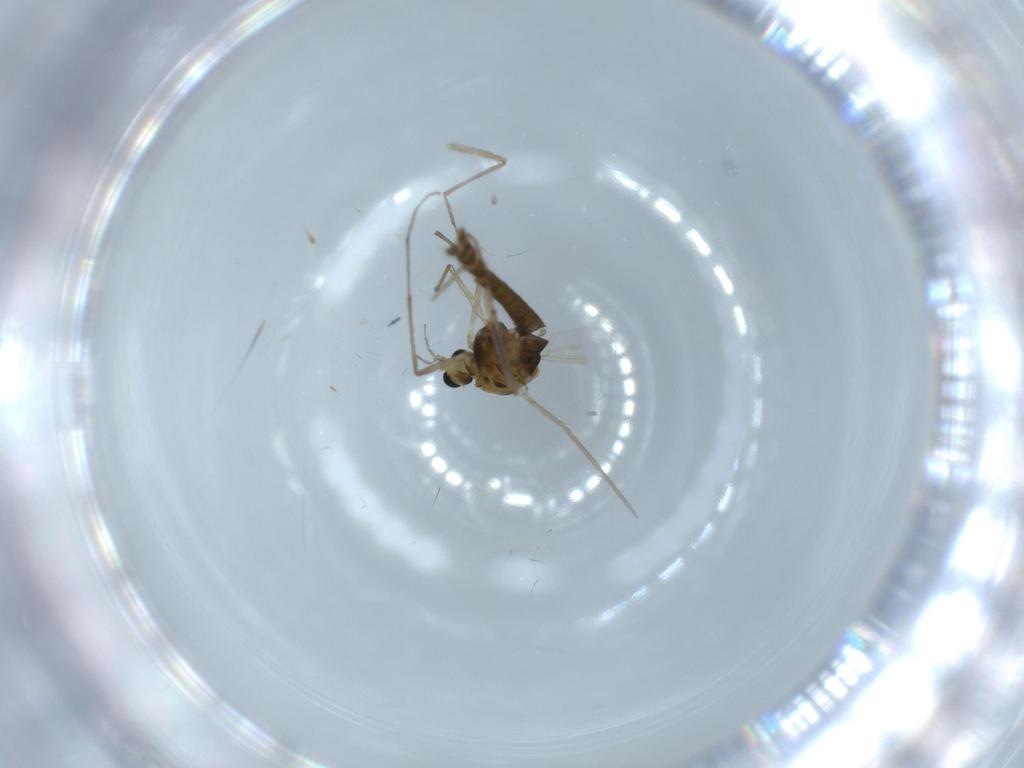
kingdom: Animalia
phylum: Arthropoda
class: Insecta
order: Diptera
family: Chironomidae
